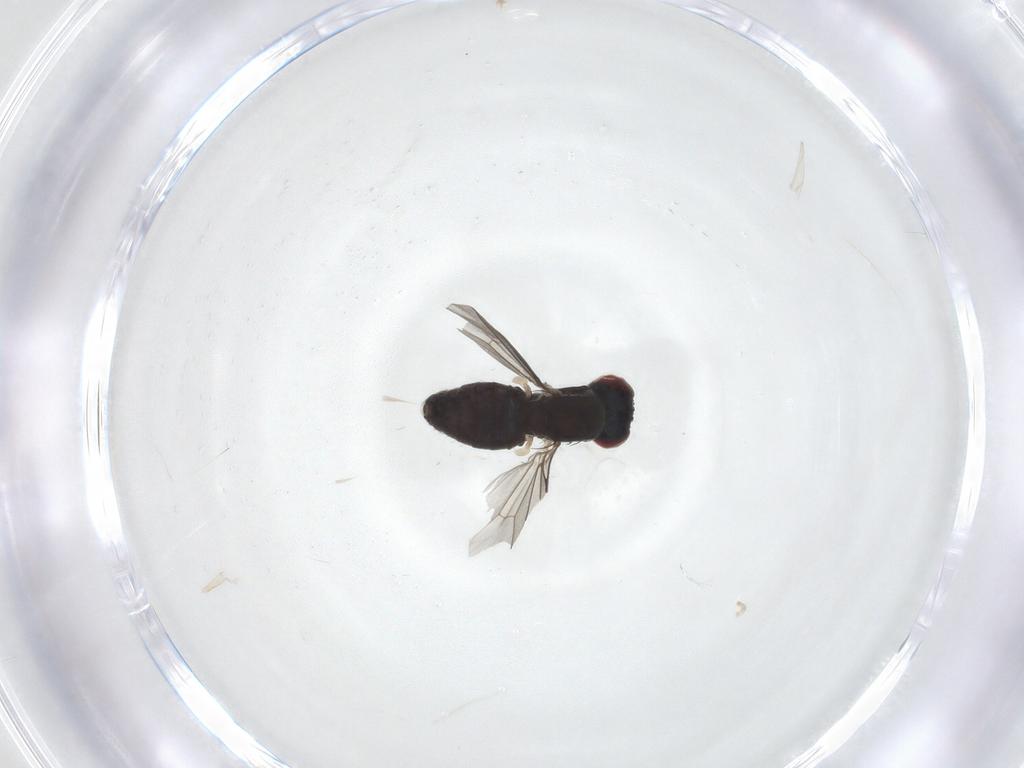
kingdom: Animalia
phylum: Arthropoda
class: Insecta
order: Diptera
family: Dolichopodidae
